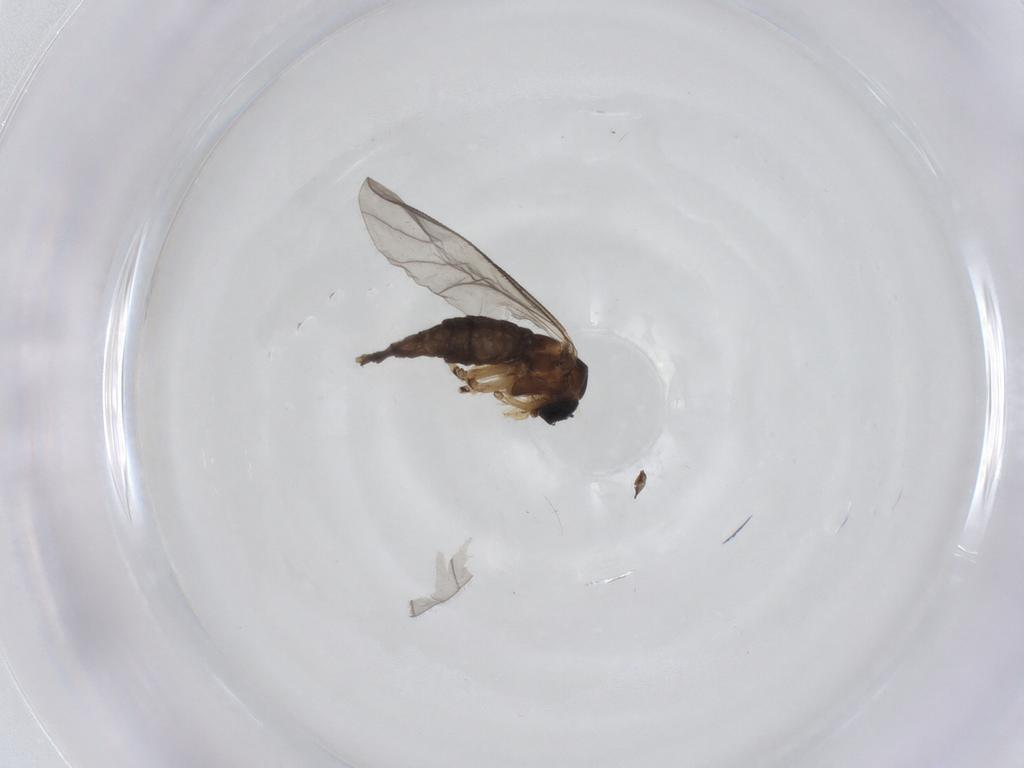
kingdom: Animalia
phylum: Arthropoda
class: Insecta
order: Diptera
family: Sciaridae
